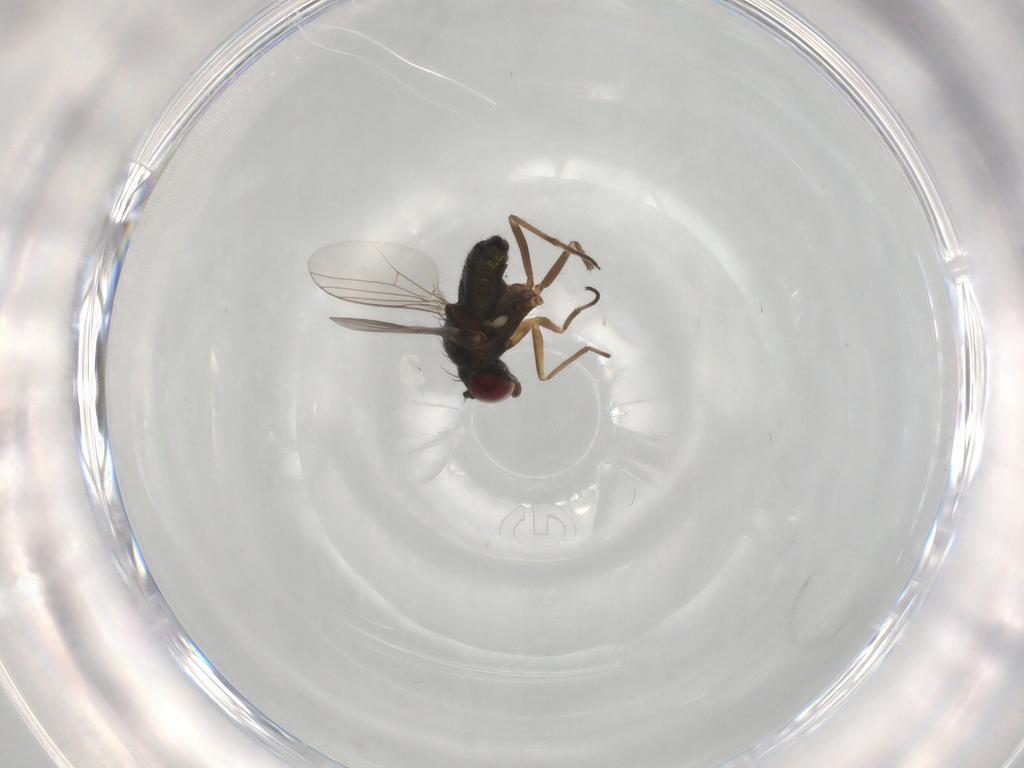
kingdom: Animalia
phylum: Arthropoda
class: Insecta
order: Diptera
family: Dolichopodidae
